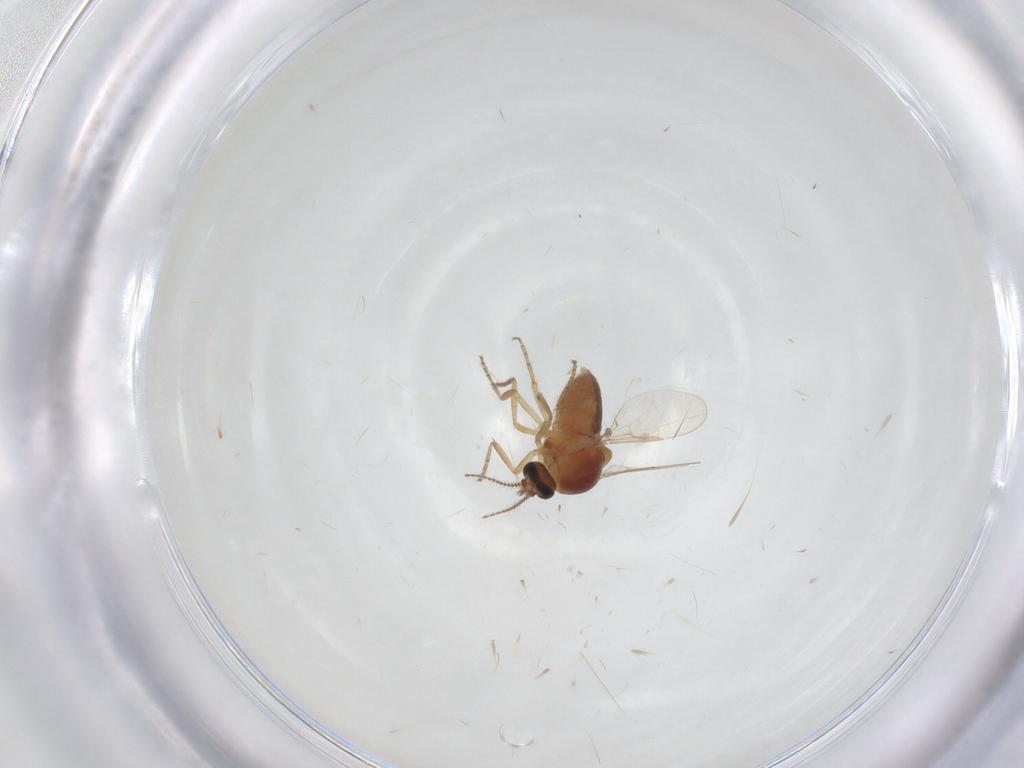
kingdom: Animalia
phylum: Arthropoda
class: Insecta
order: Diptera
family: Ceratopogonidae
